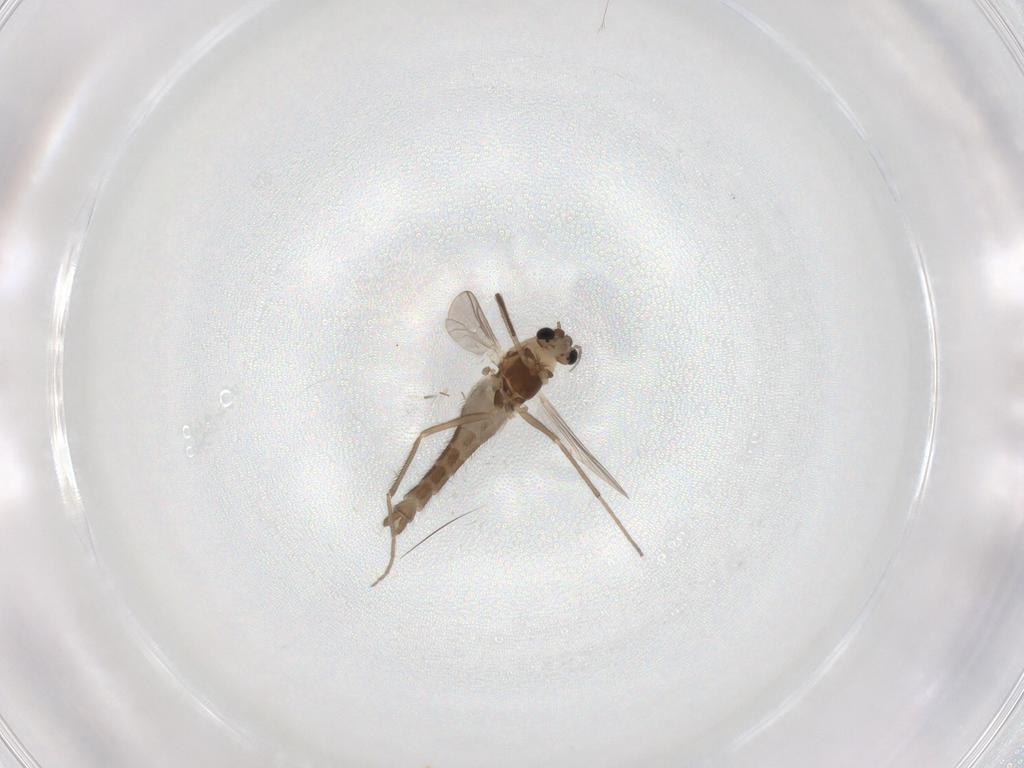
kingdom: Animalia
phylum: Arthropoda
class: Insecta
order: Diptera
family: Chironomidae
